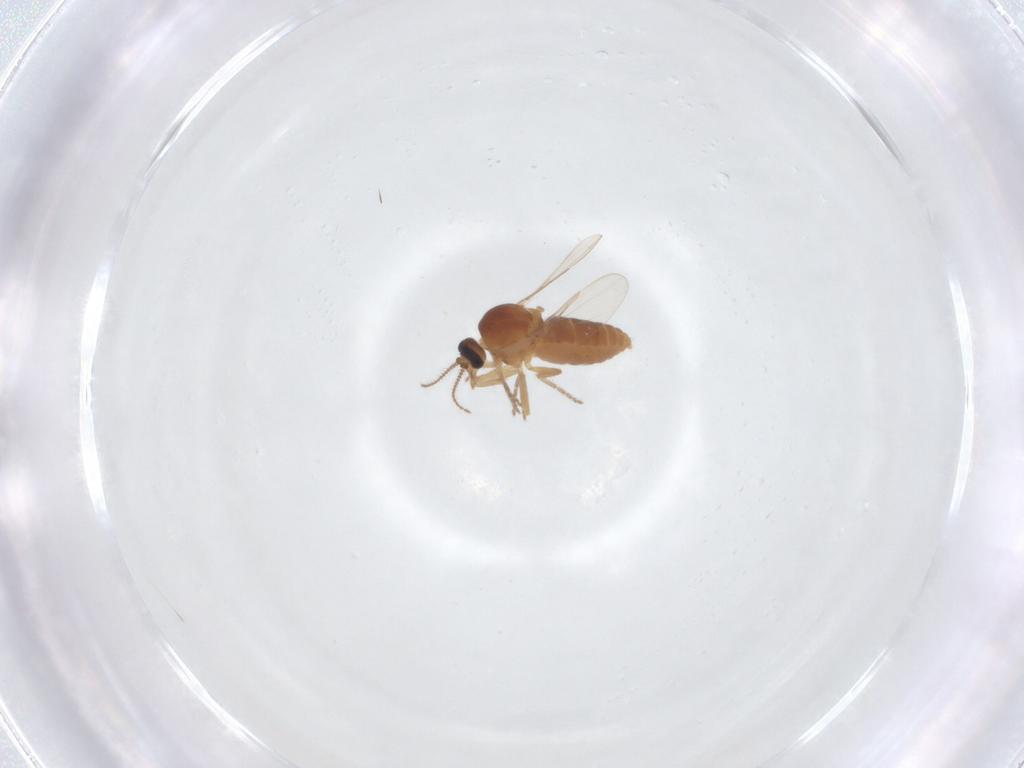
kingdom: Animalia
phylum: Arthropoda
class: Insecta
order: Diptera
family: Ceratopogonidae
